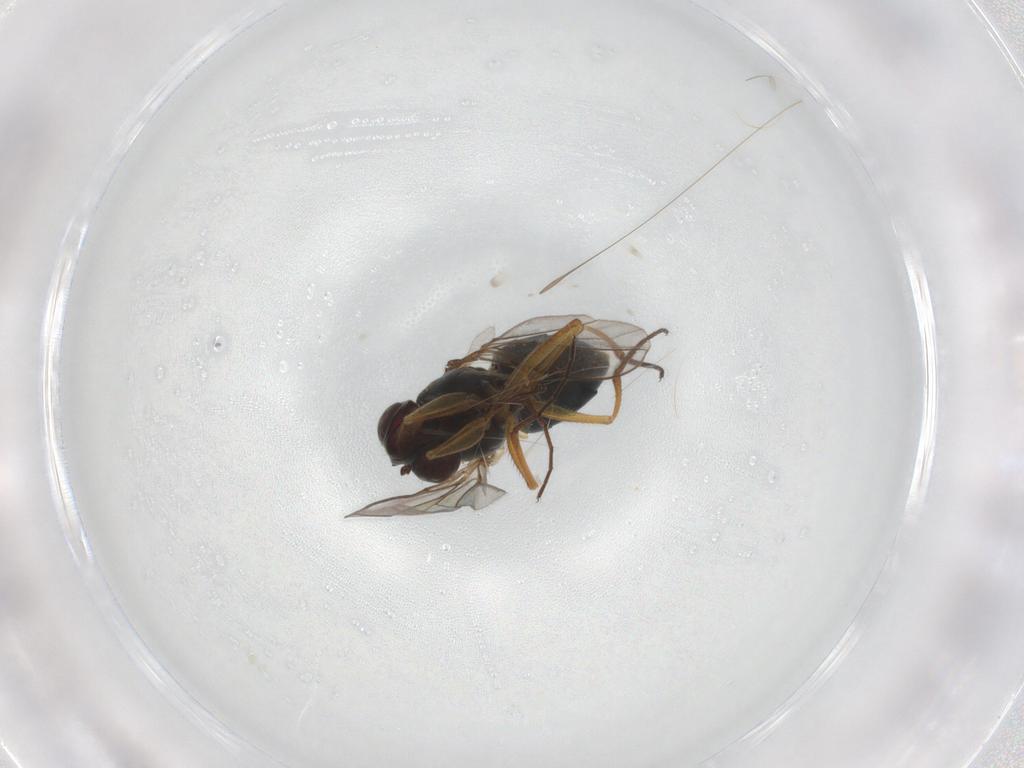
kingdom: Animalia
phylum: Arthropoda
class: Insecta
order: Diptera
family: Ephydridae
